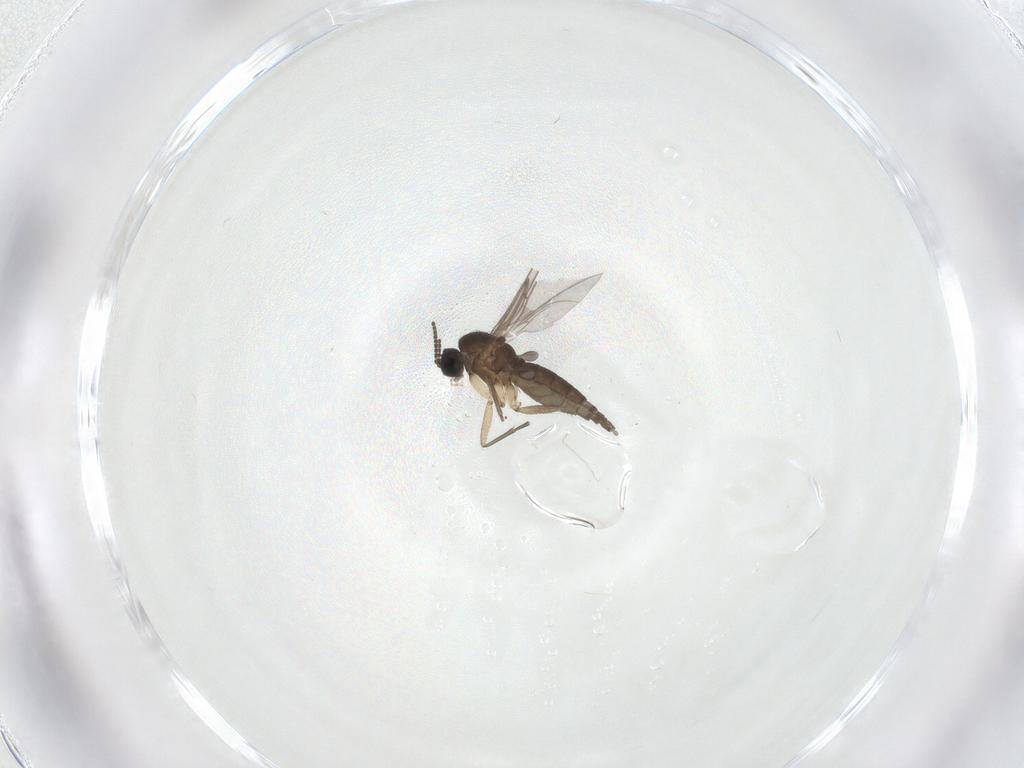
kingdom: Animalia
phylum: Arthropoda
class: Insecta
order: Diptera
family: Sciaridae
